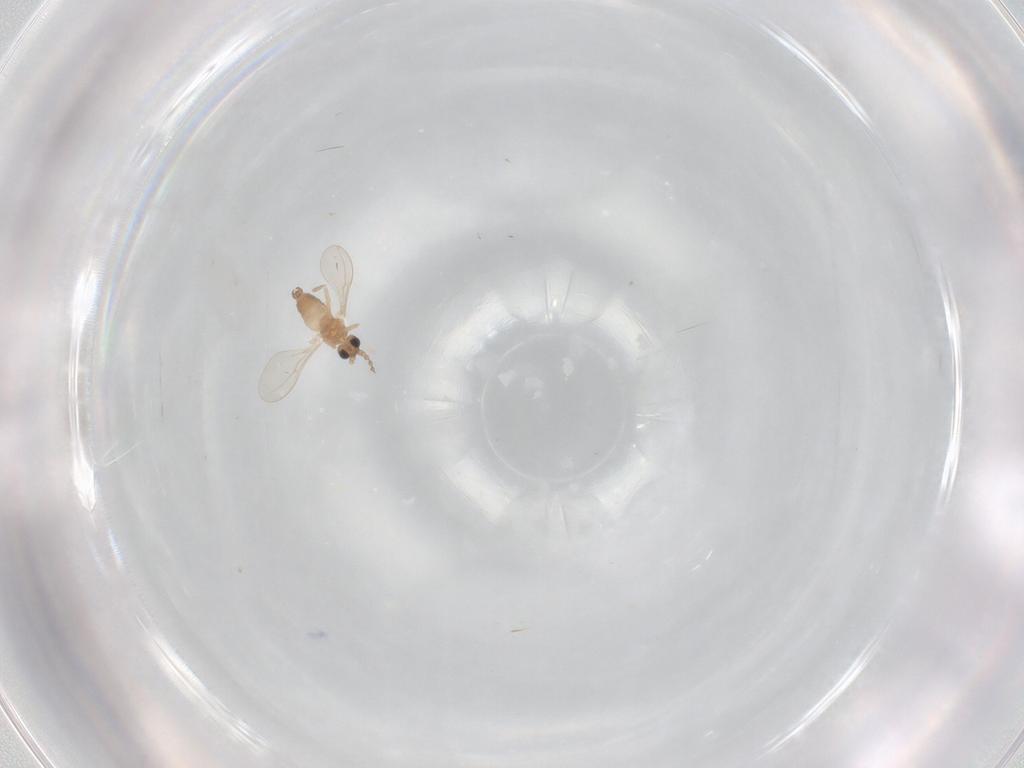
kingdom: Animalia
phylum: Arthropoda
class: Insecta
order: Diptera
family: Cecidomyiidae
